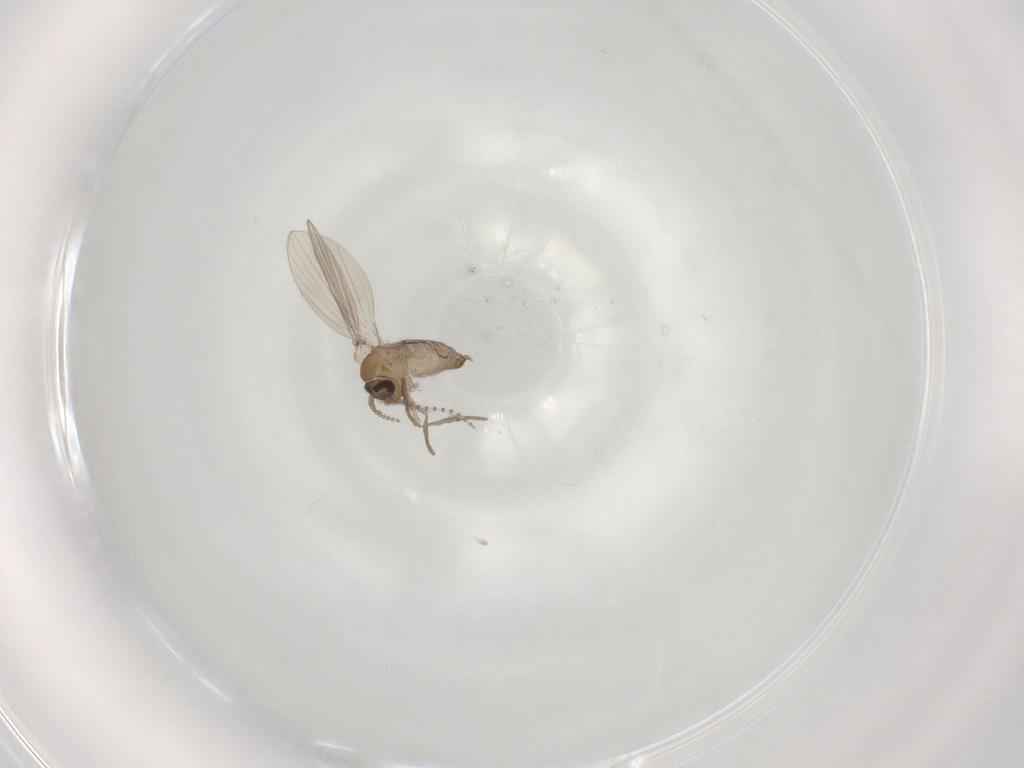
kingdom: Animalia
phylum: Arthropoda
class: Insecta
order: Diptera
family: Psychodidae
